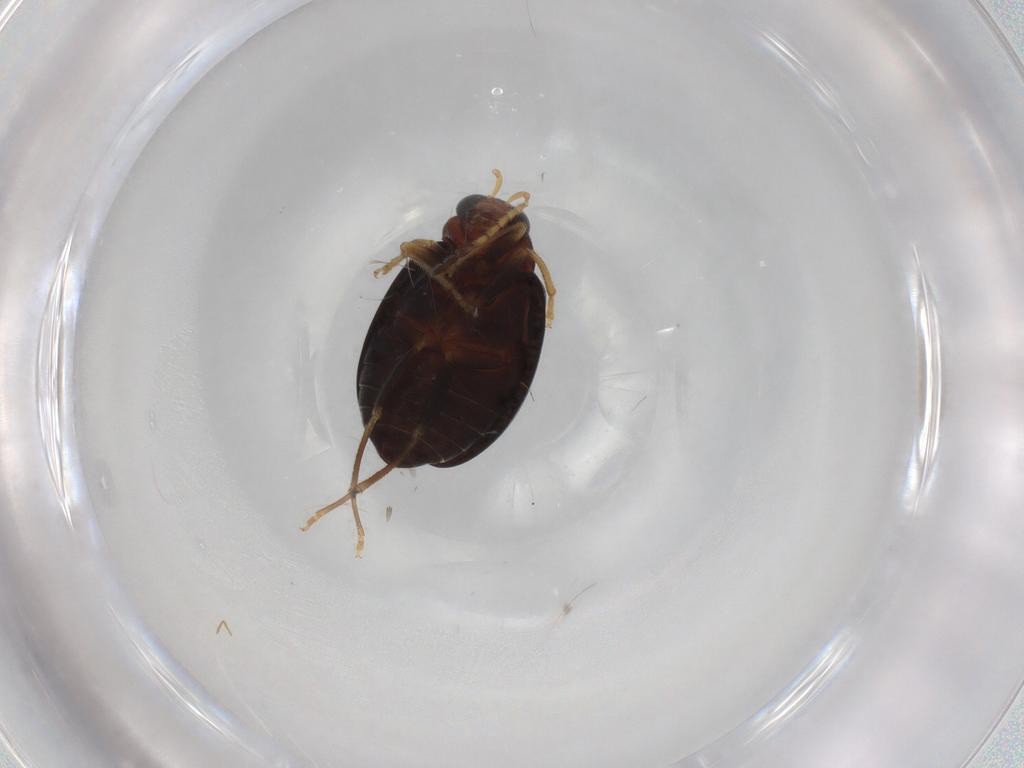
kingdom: Animalia
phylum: Arthropoda
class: Insecta
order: Coleoptera
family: Chrysomelidae
